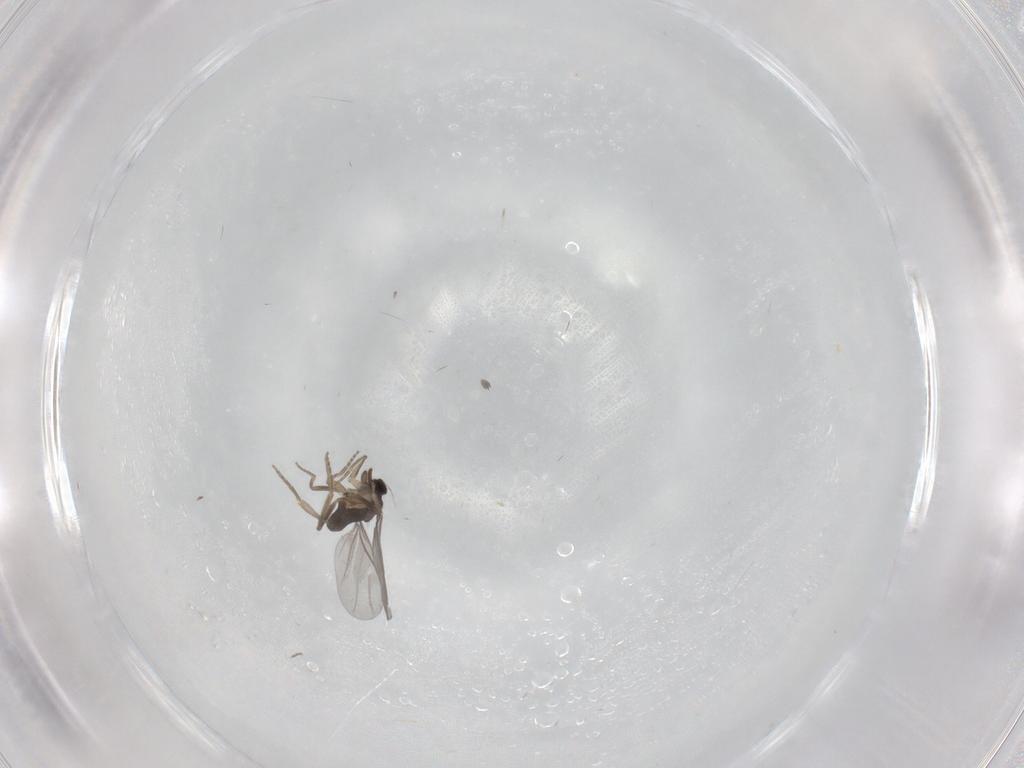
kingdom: Animalia
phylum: Arthropoda
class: Insecta
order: Diptera
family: Chironomidae
